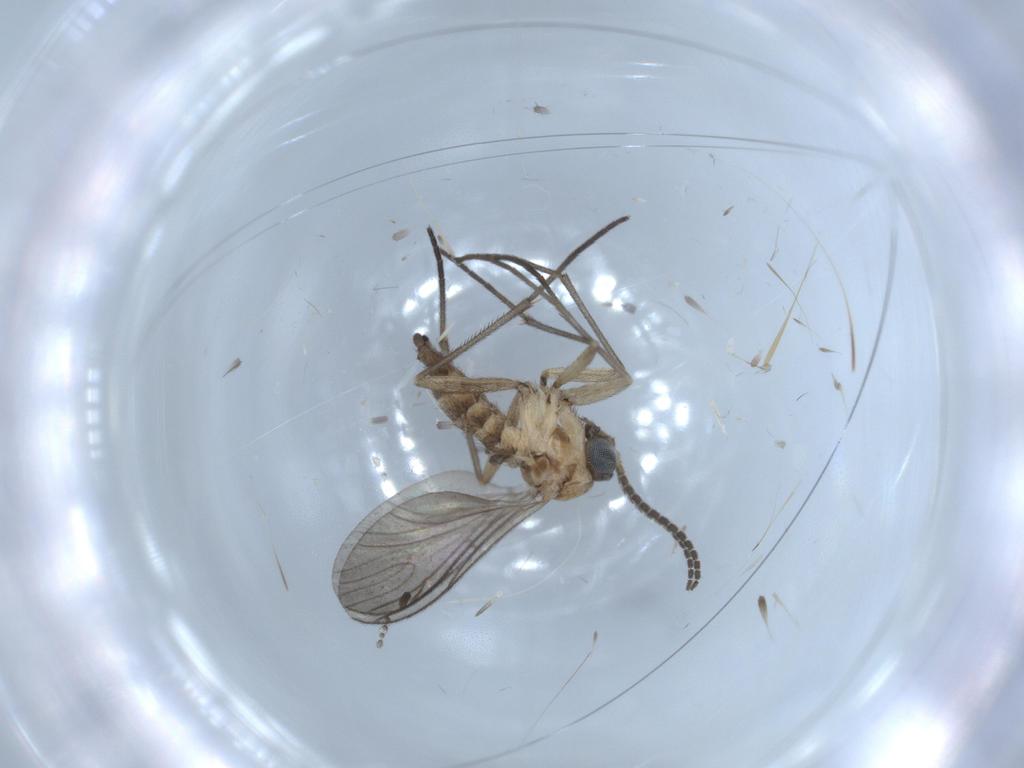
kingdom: Animalia
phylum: Arthropoda
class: Insecta
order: Diptera
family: Sciaridae
